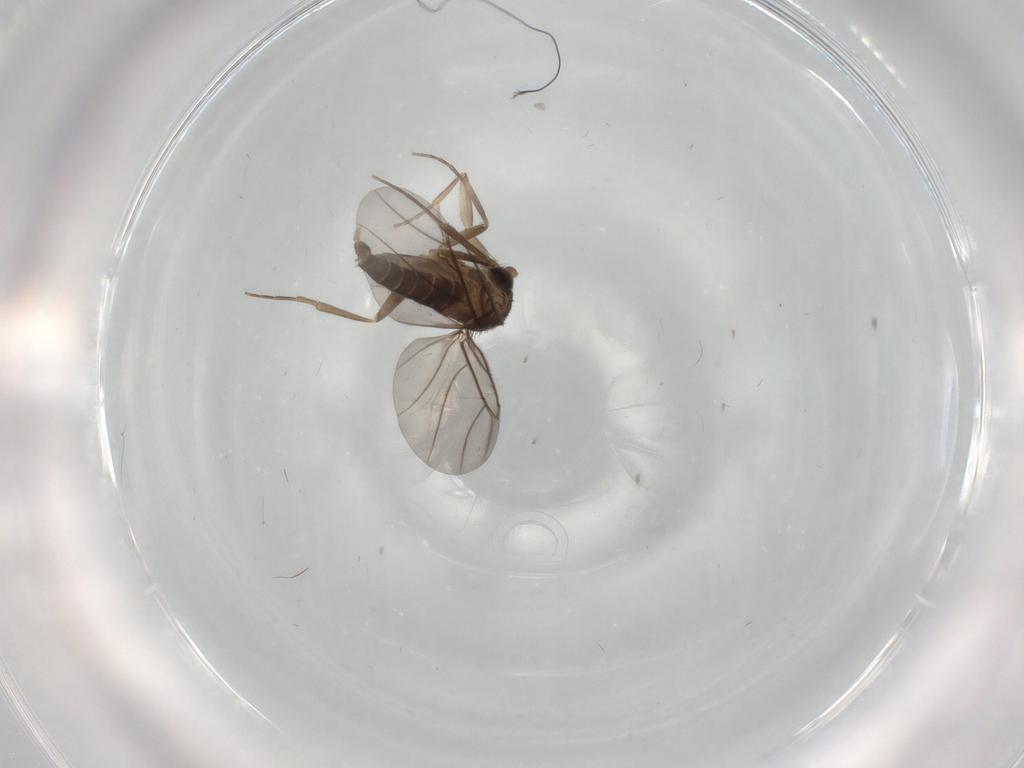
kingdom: Animalia
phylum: Arthropoda
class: Insecta
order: Diptera
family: Phoridae
